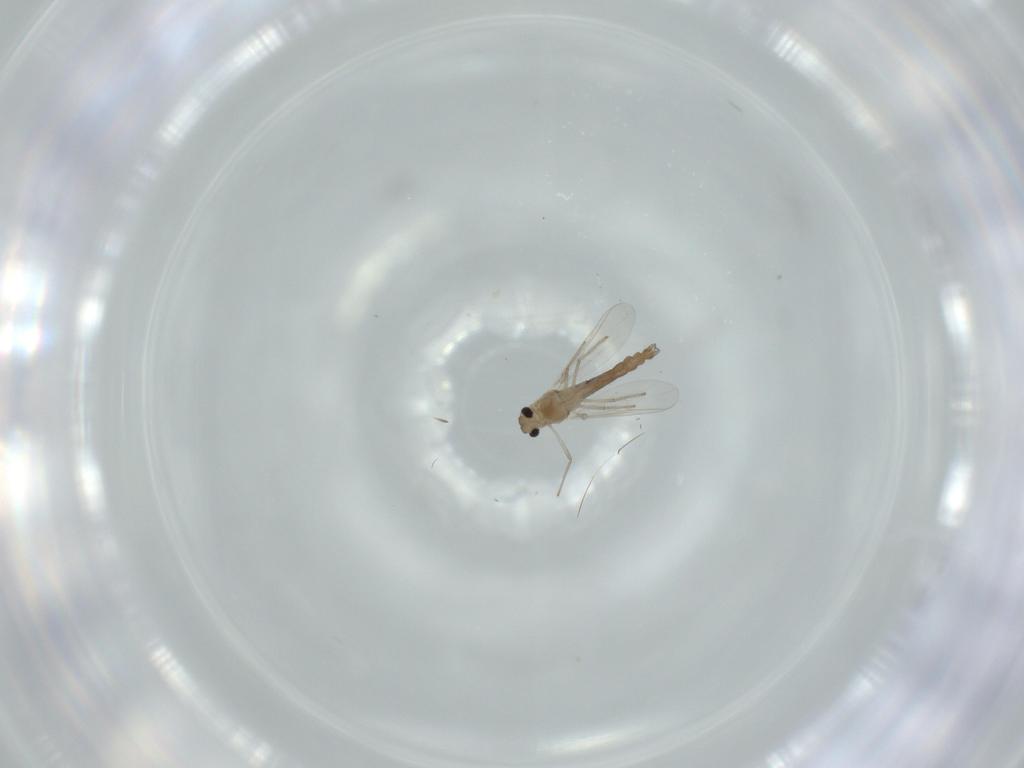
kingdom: Animalia
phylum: Arthropoda
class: Insecta
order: Diptera
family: Chironomidae
